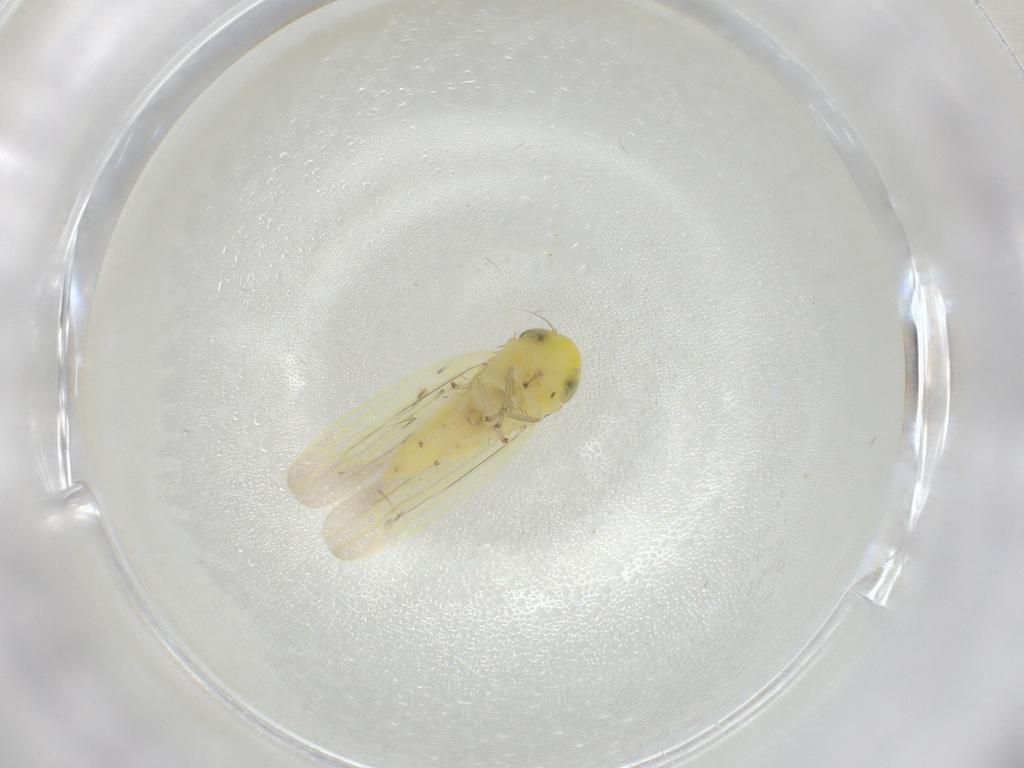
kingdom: Animalia
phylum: Arthropoda
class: Insecta
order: Hemiptera
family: Cicadellidae
